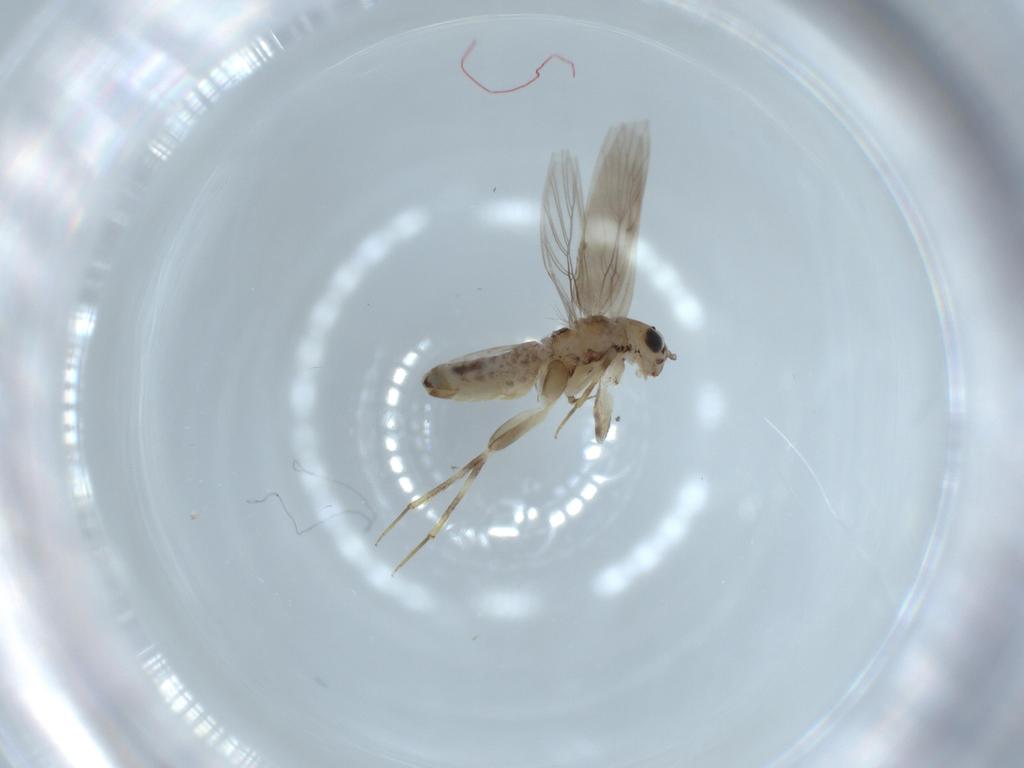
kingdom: Animalia
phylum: Arthropoda
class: Insecta
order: Psocodea
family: Lepidopsocidae
